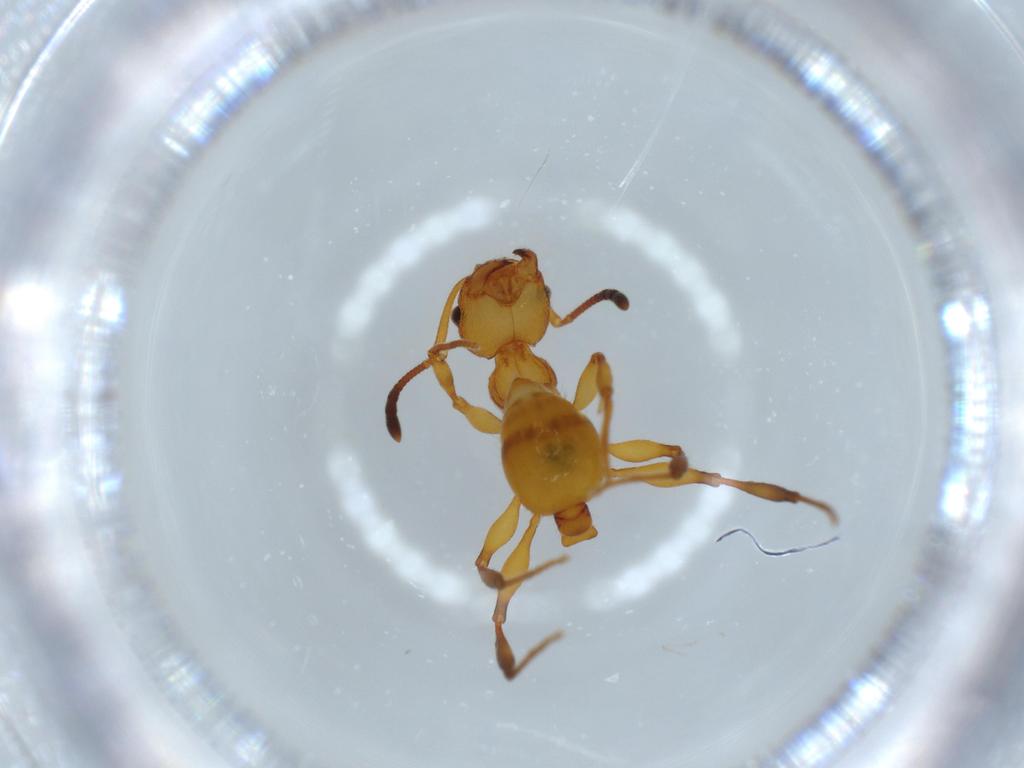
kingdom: Animalia
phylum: Arthropoda
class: Insecta
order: Hymenoptera
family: Formicidae
